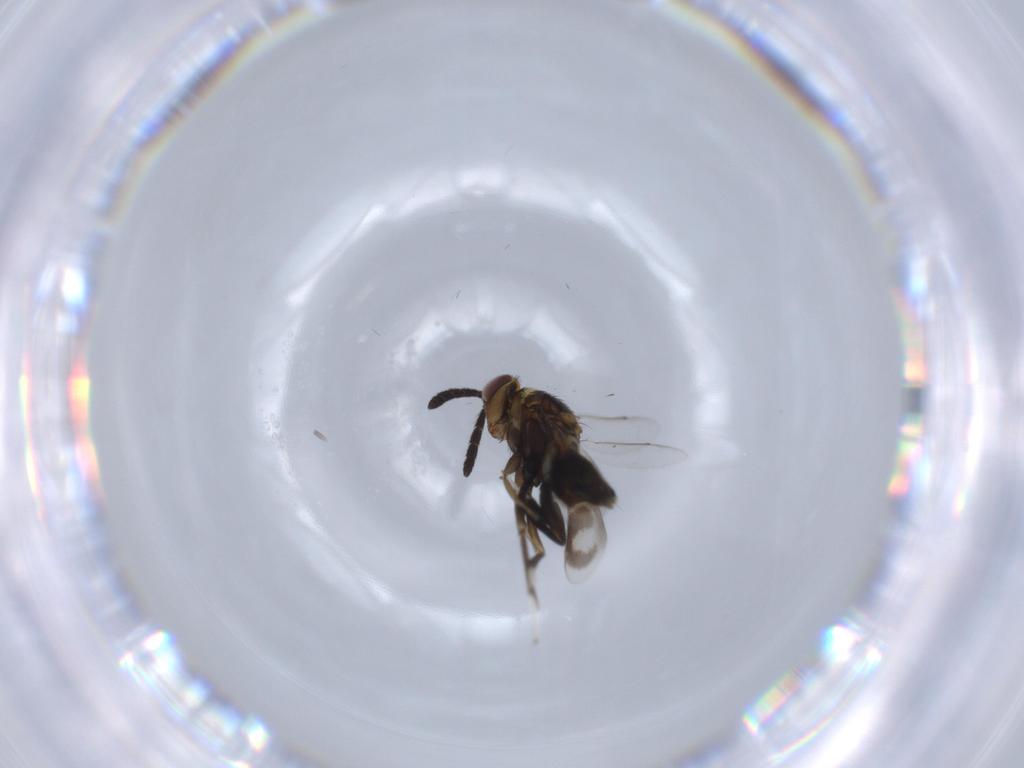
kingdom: Animalia
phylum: Arthropoda
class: Insecta
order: Hymenoptera
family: Aphelinidae
